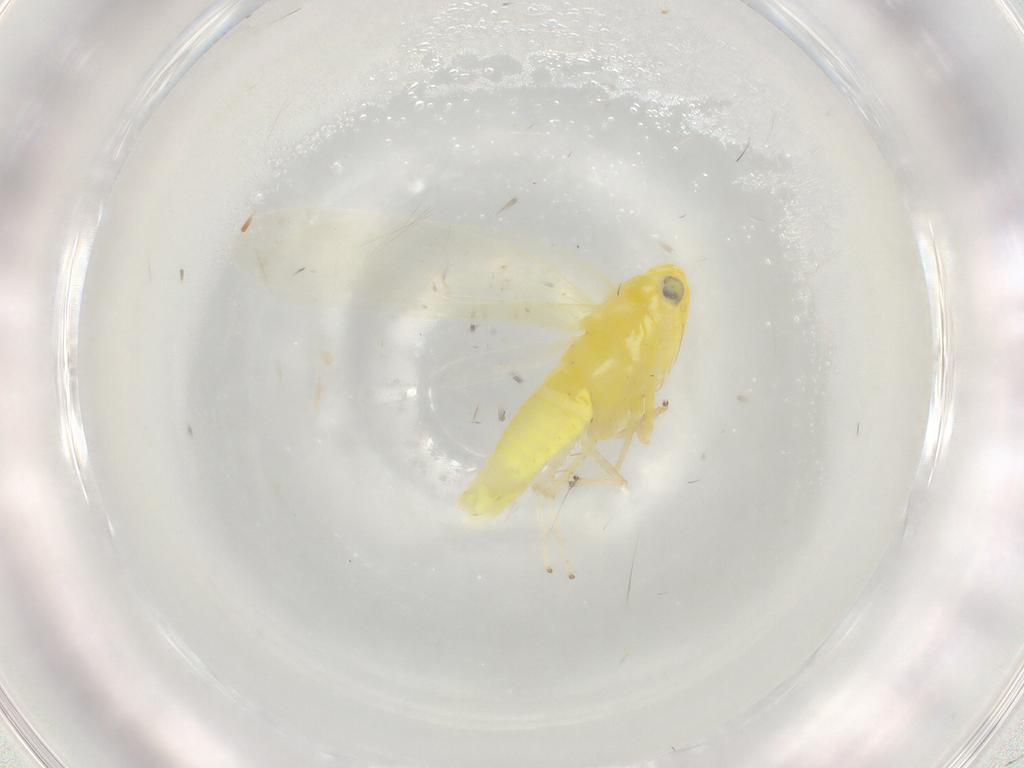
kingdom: Animalia
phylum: Arthropoda
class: Insecta
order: Hemiptera
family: Cicadellidae
